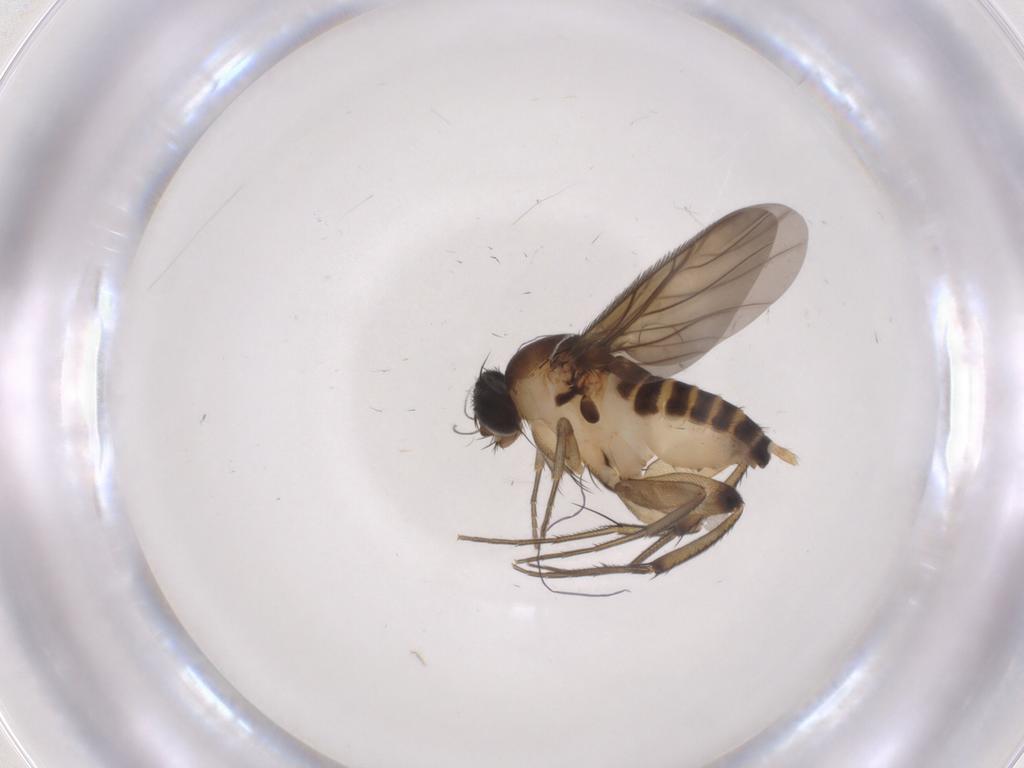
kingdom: Animalia
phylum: Arthropoda
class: Insecta
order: Diptera
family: Phoridae
